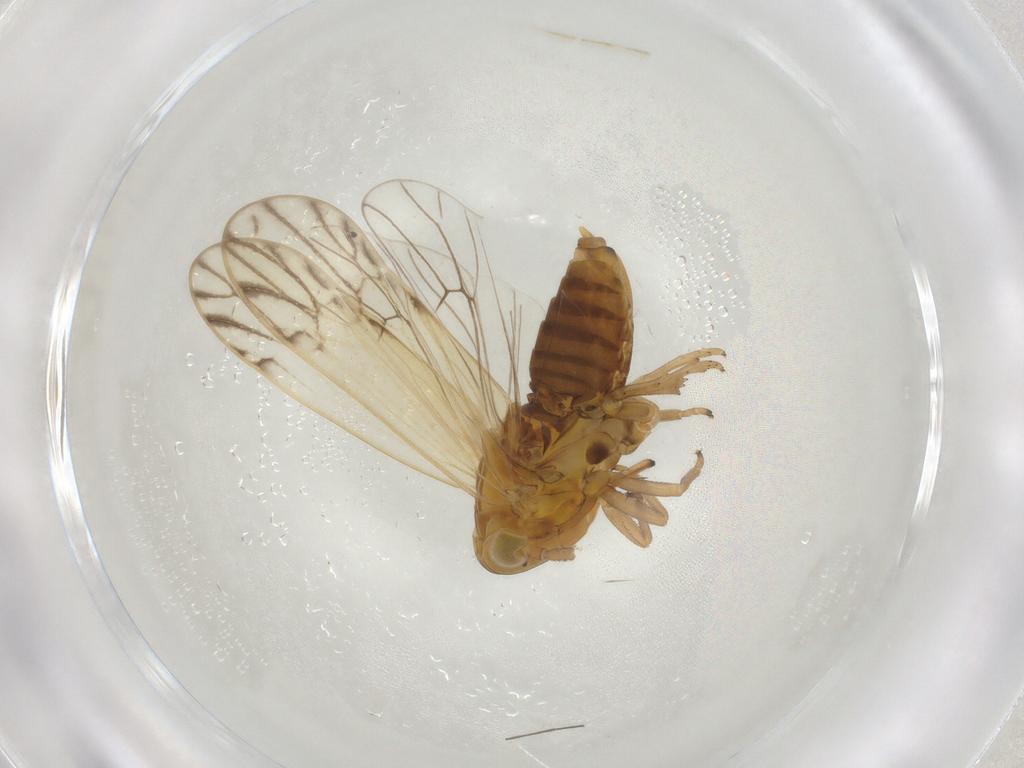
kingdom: Animalia
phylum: Arthropoda
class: Insecta
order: Hemiptera
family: Delphacidae
